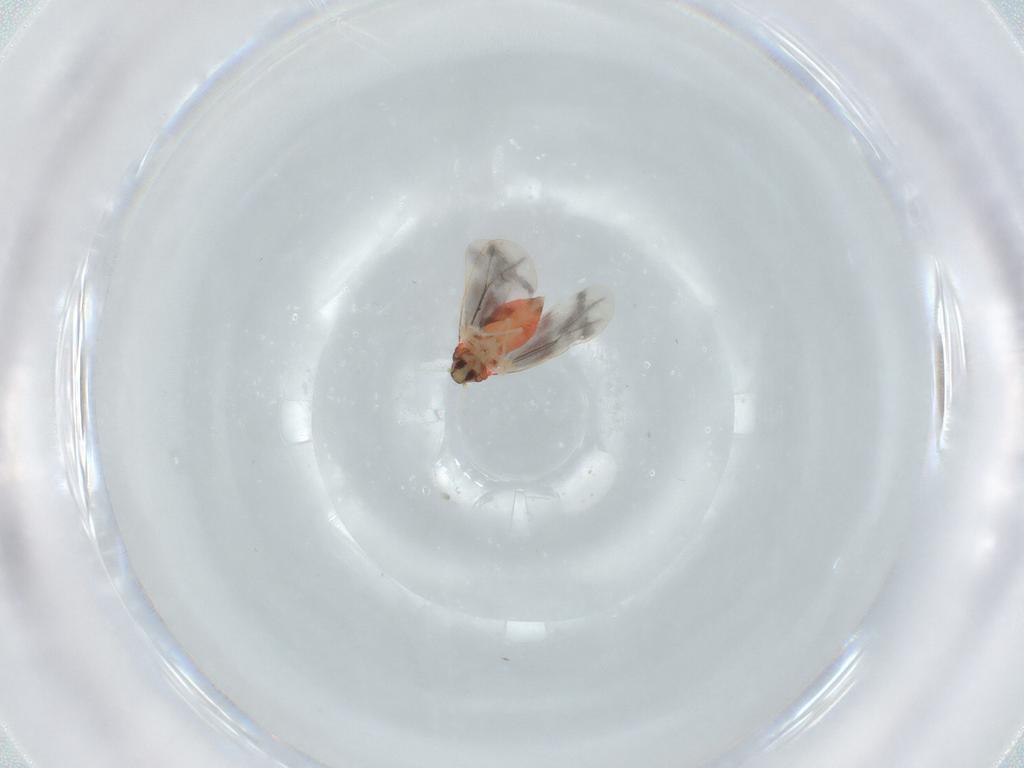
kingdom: Animalia
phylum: Arthropoda
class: Insecta
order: Hemiptera
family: Aleyrodidae
